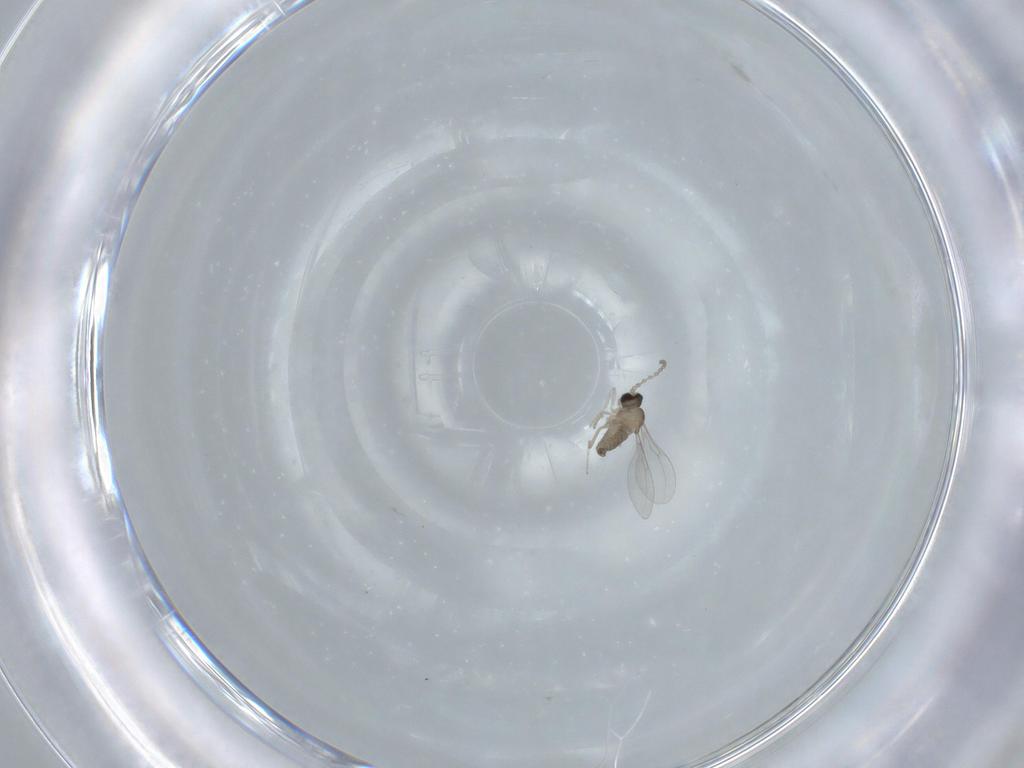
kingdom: Animalia
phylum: Arthropoda
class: Insecta
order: Diptera
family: Cecidomyiidae
